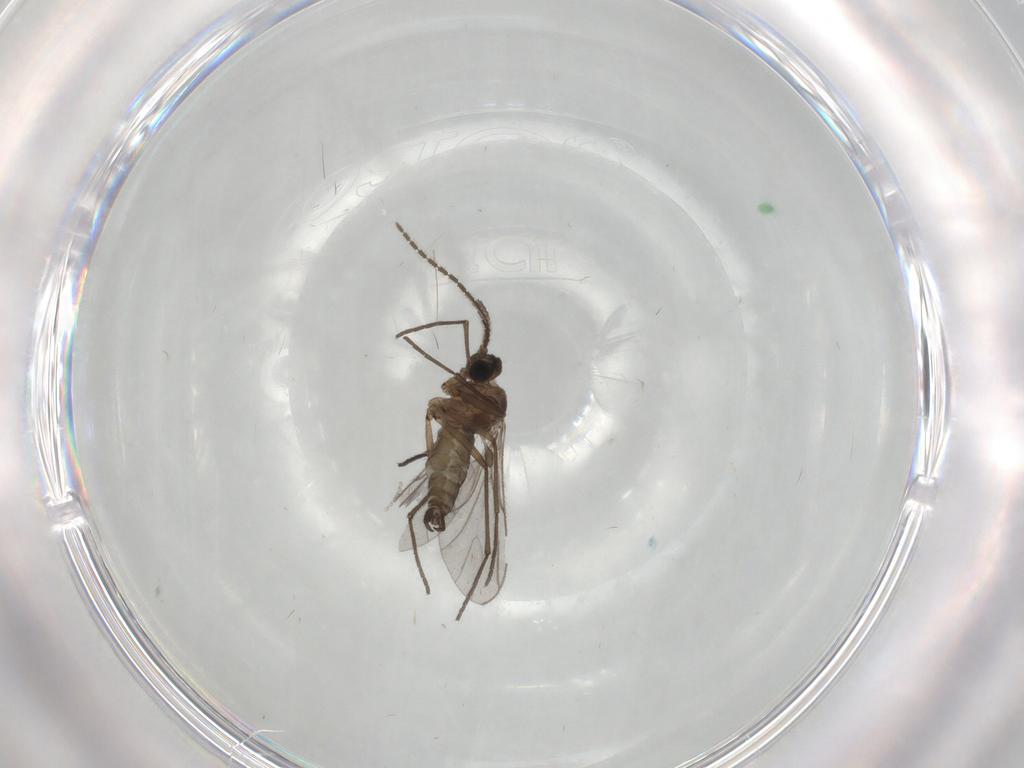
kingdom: Animalia
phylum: Arthropoda
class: Insecta
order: Diptera
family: Cecidomyiidae
